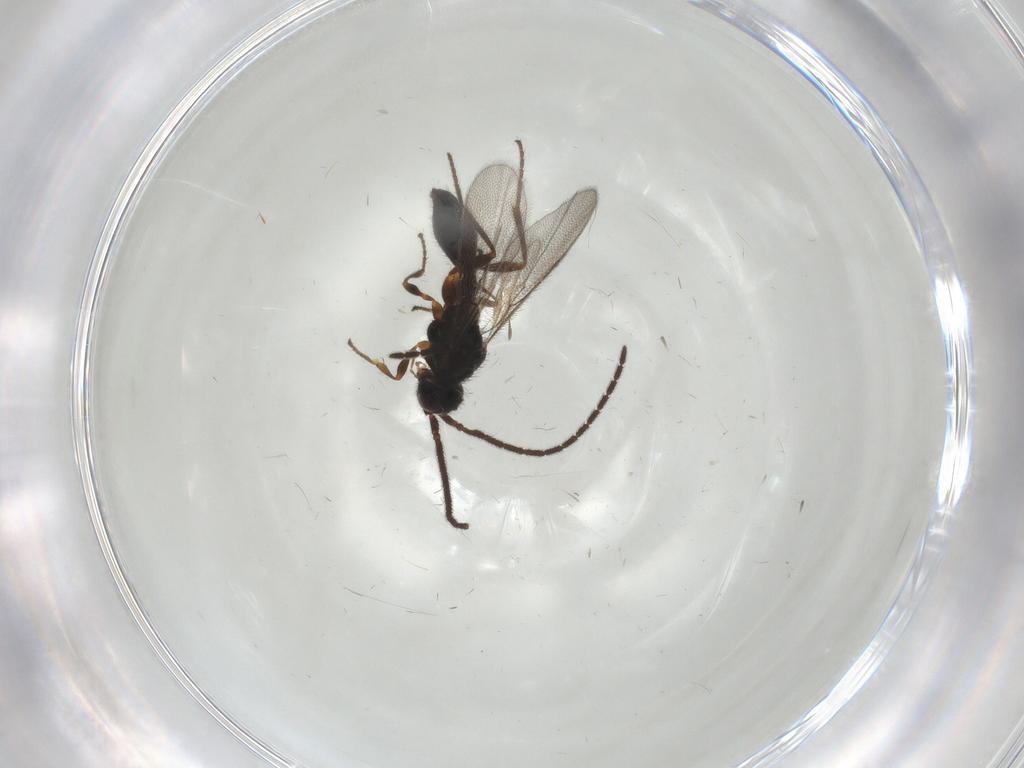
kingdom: Animalia
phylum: Arthropoda
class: Insecta
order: Hymenoptera
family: Diapriidae
